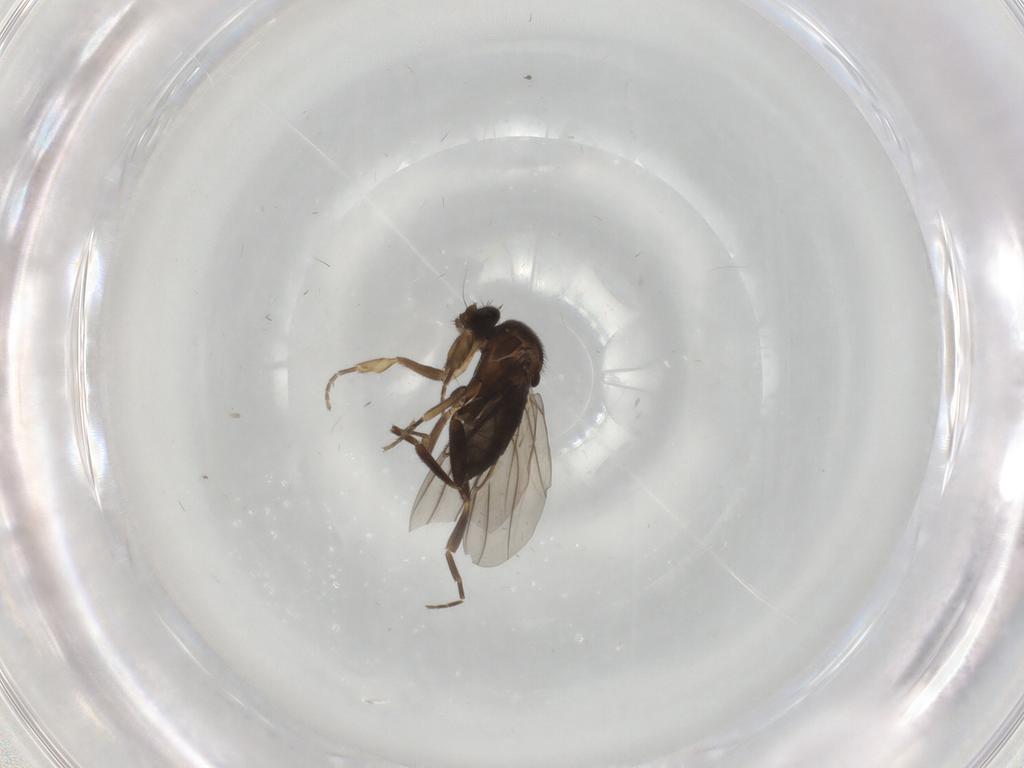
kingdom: Animalia
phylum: Arthropoda
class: Insecta
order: Diptera
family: Phoridae
